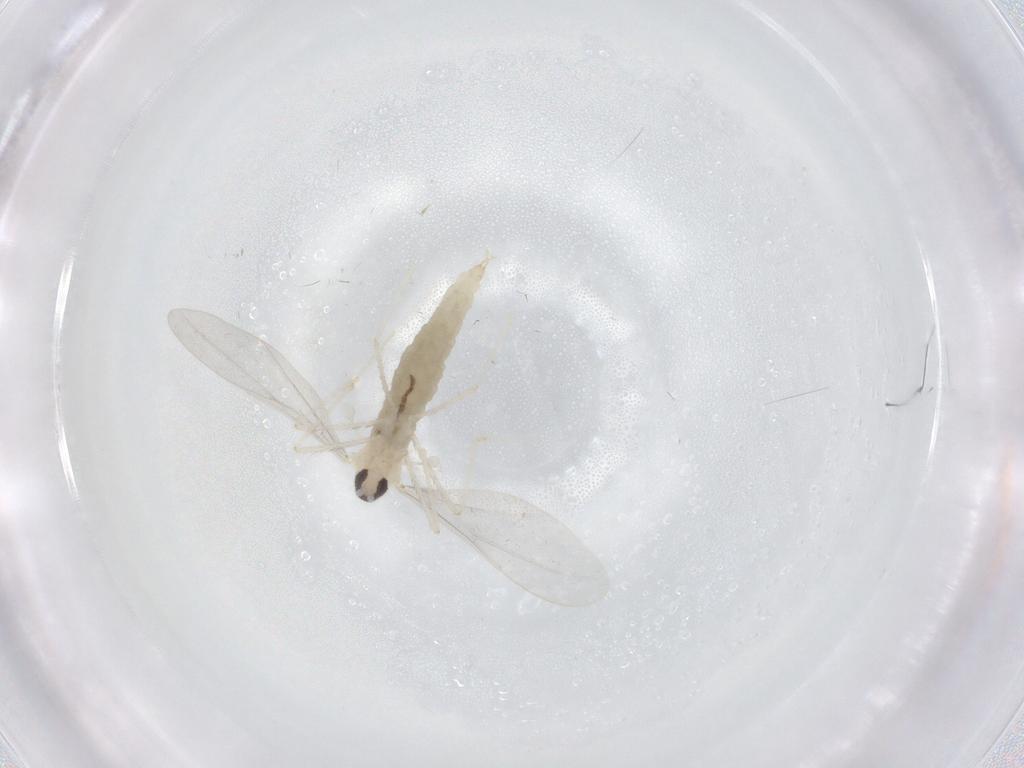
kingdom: Animalia
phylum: Arthropoda
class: Insecta
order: Diptera
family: Cecidomyiidae
